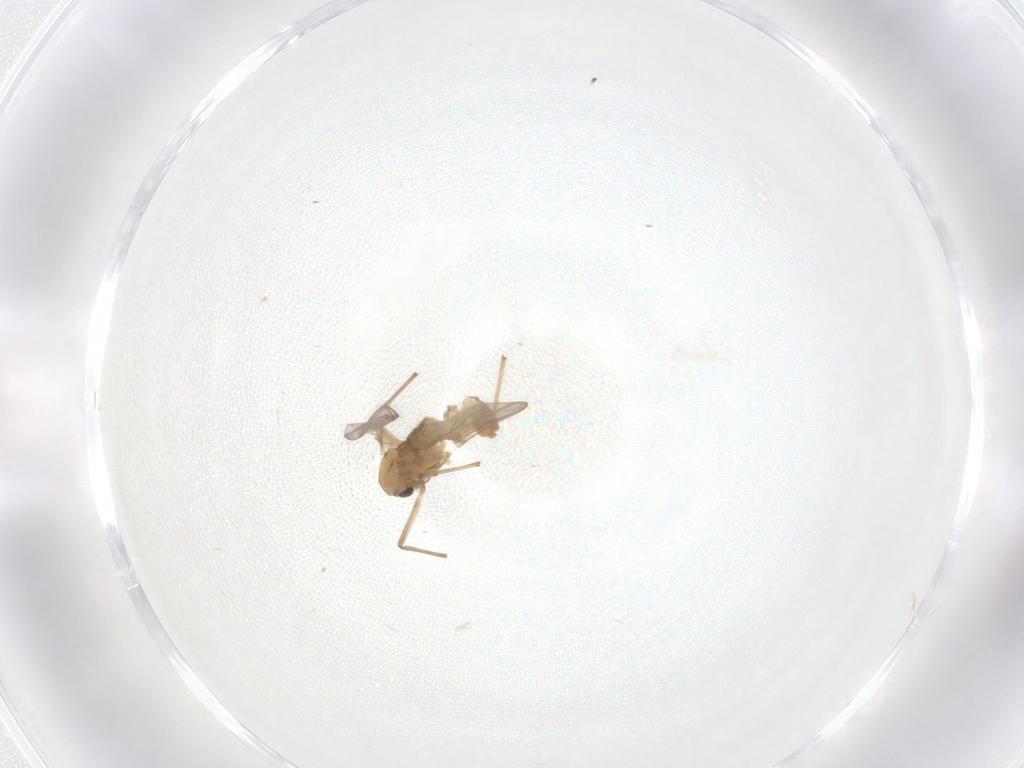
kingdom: Animalia
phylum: Arthropoda
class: Insecta
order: Diptera
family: Chironomidae
